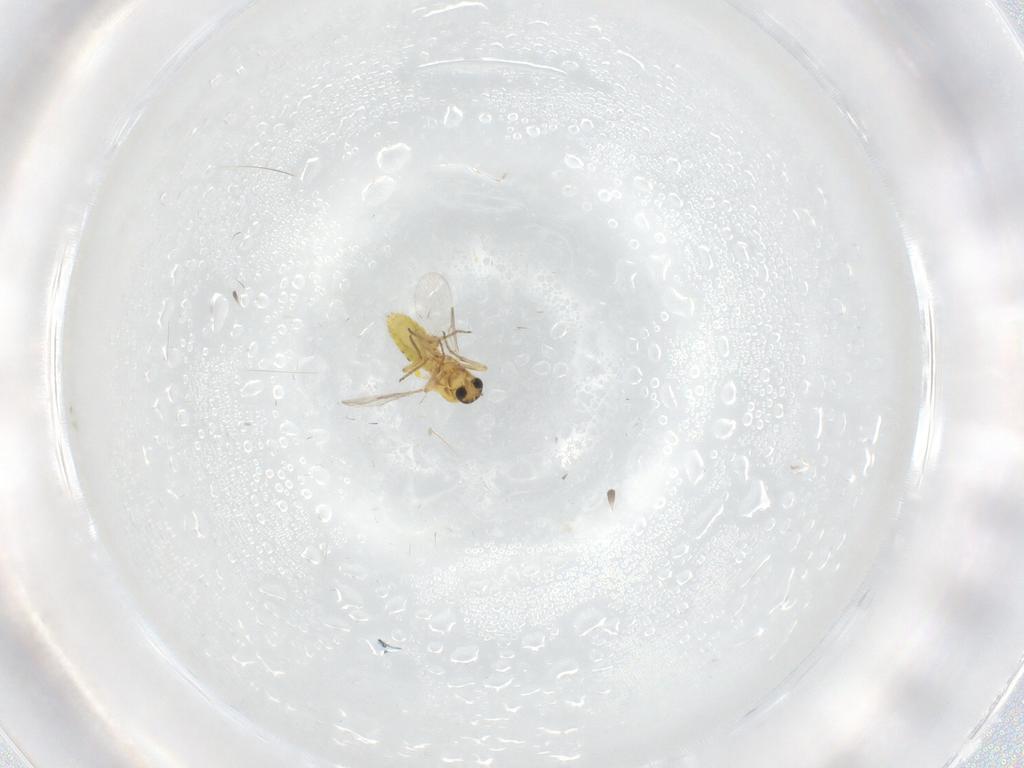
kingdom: Animalia
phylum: Arthropoda
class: Insecta
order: Diptera
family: Ceratopogonidae
